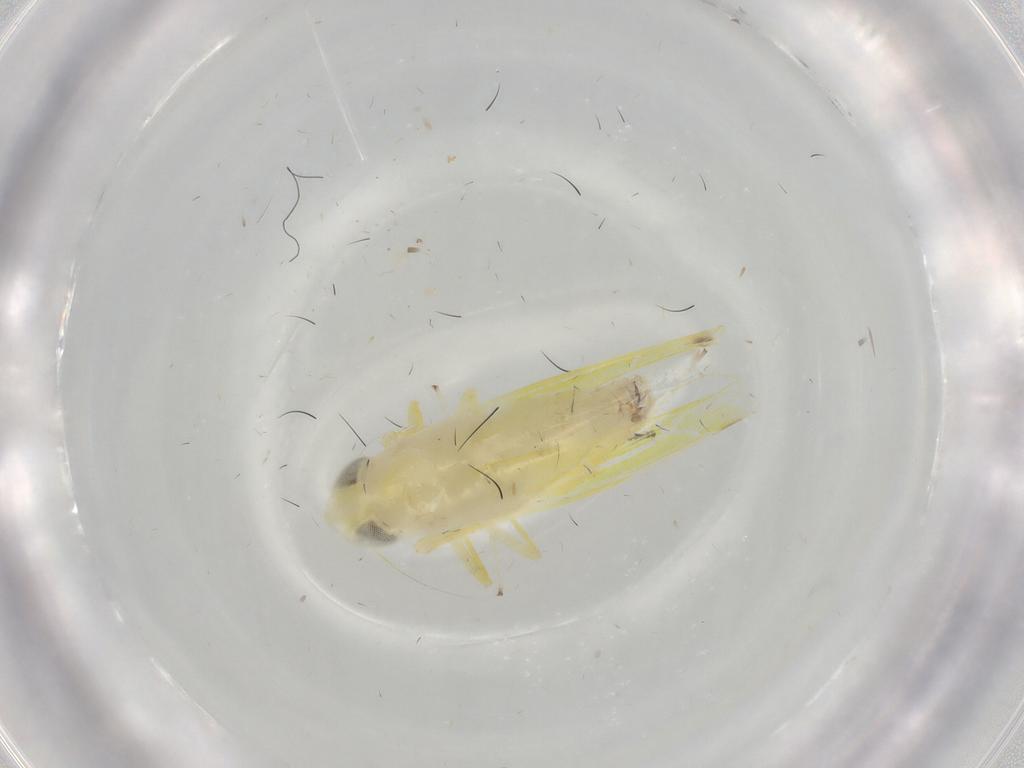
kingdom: Animalia
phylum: Arthropoda
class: Insecta
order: Hemiptera
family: Cicadellidae
